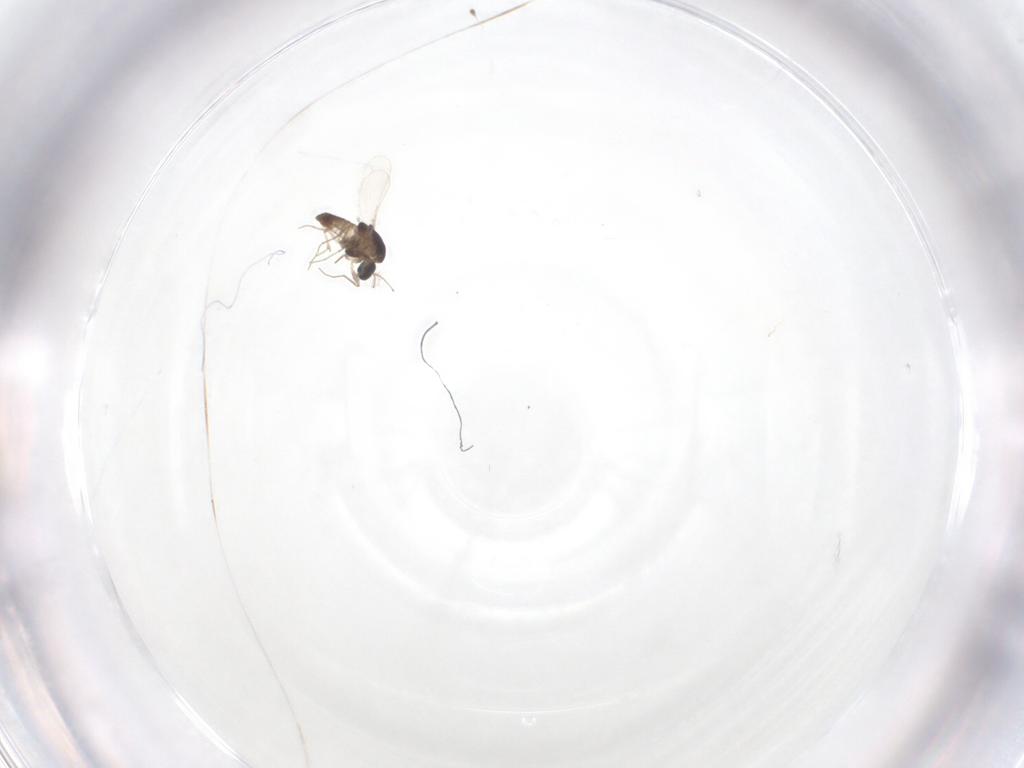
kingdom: Animalia
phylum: Arthropoda
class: Insecta
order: Diptera
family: Chironomidae
